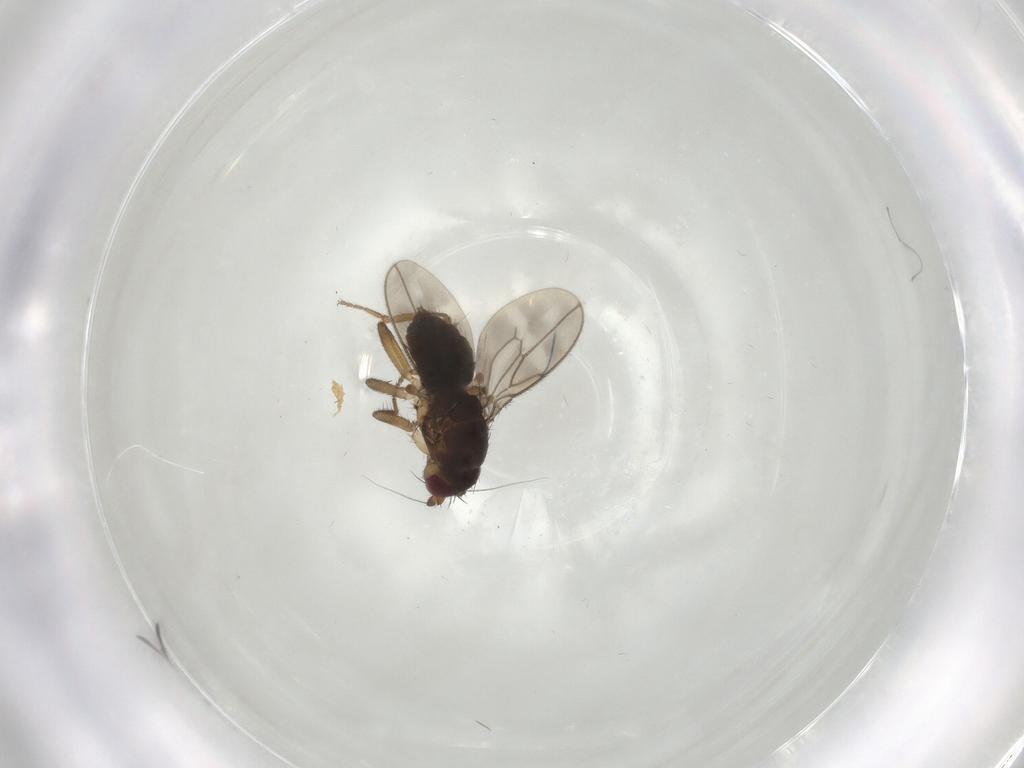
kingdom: Animalia
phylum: Arthropoda
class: Insecta
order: Diptera
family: Sphaeroceridae
